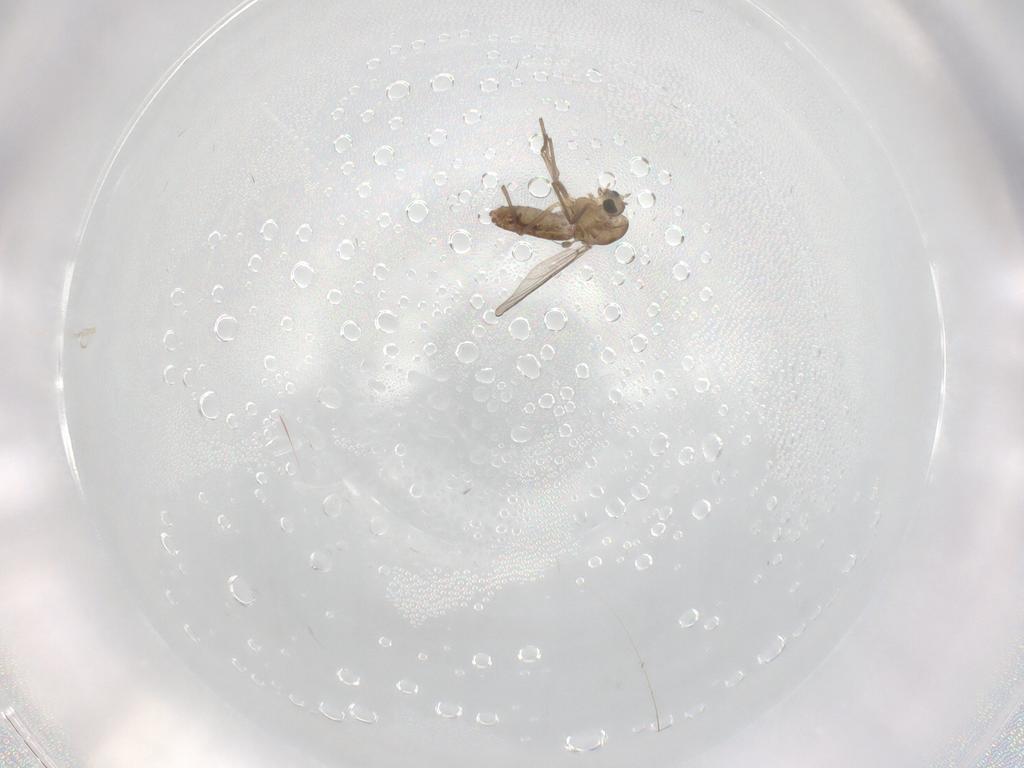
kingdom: Animalia
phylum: Arthropoda
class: Insecta
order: Diptera
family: Chironomidae
